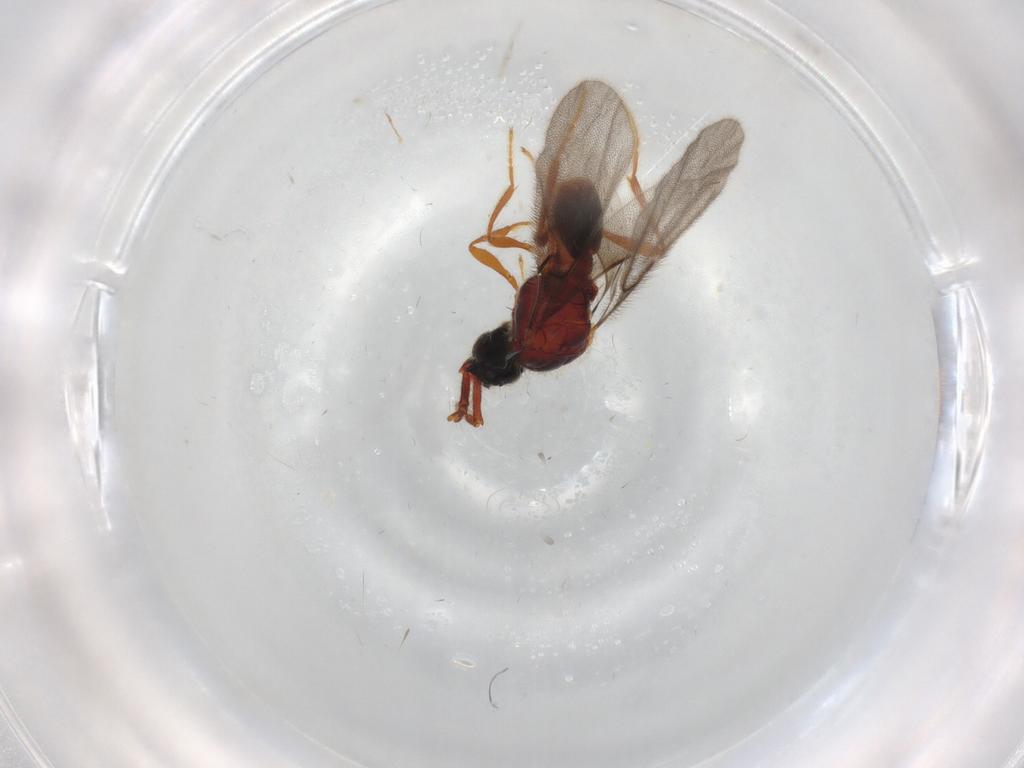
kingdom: Animalia
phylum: Arthropoda
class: Insecta
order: Hymenoptera
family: Diapriidae
